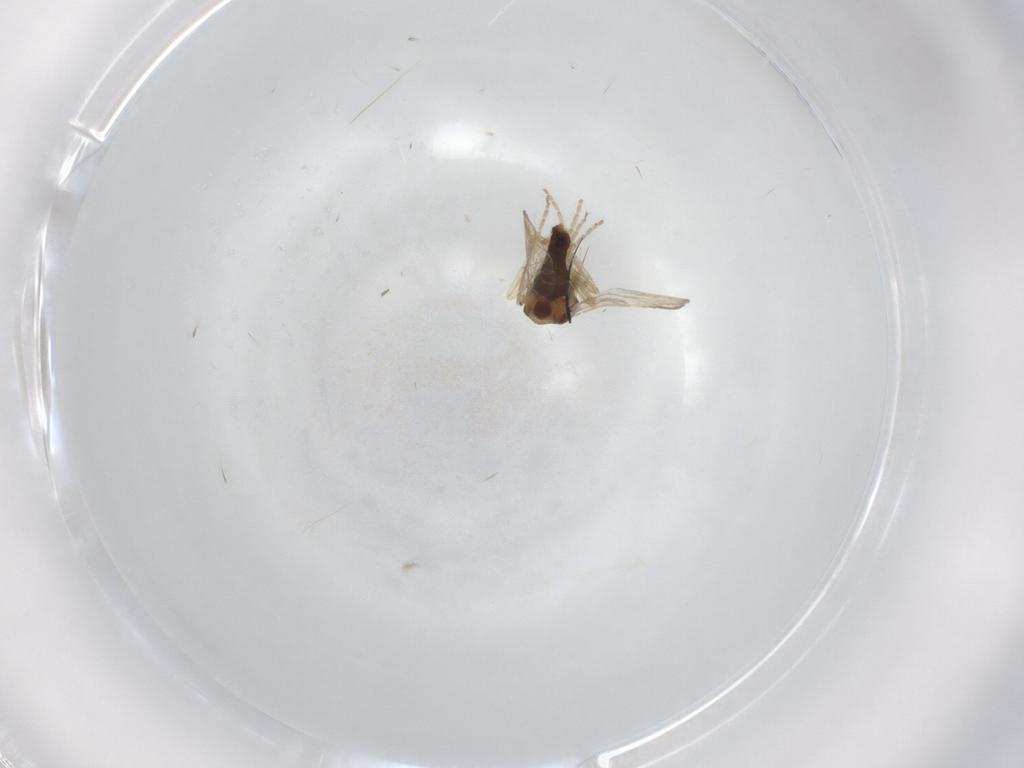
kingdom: Animalia
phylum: Arthropoda
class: Insecta
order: Diptera
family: Ceratopogonidae
